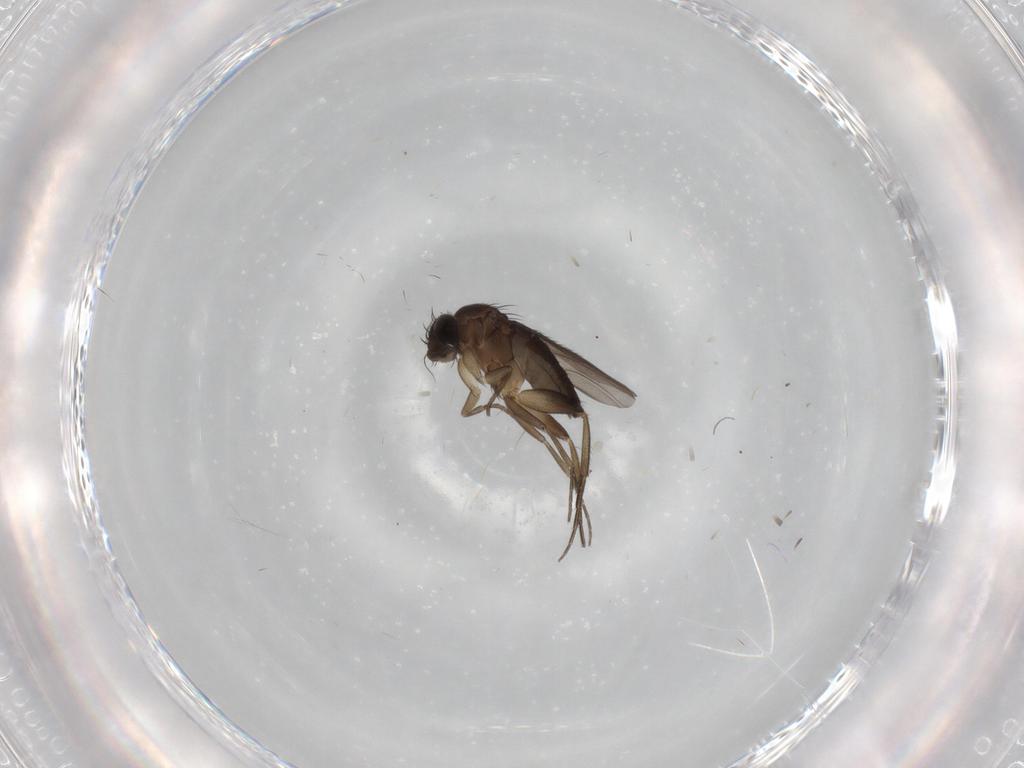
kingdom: Animalia
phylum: Arthropoda
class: Insecta
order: Diptera
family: Phoridae
